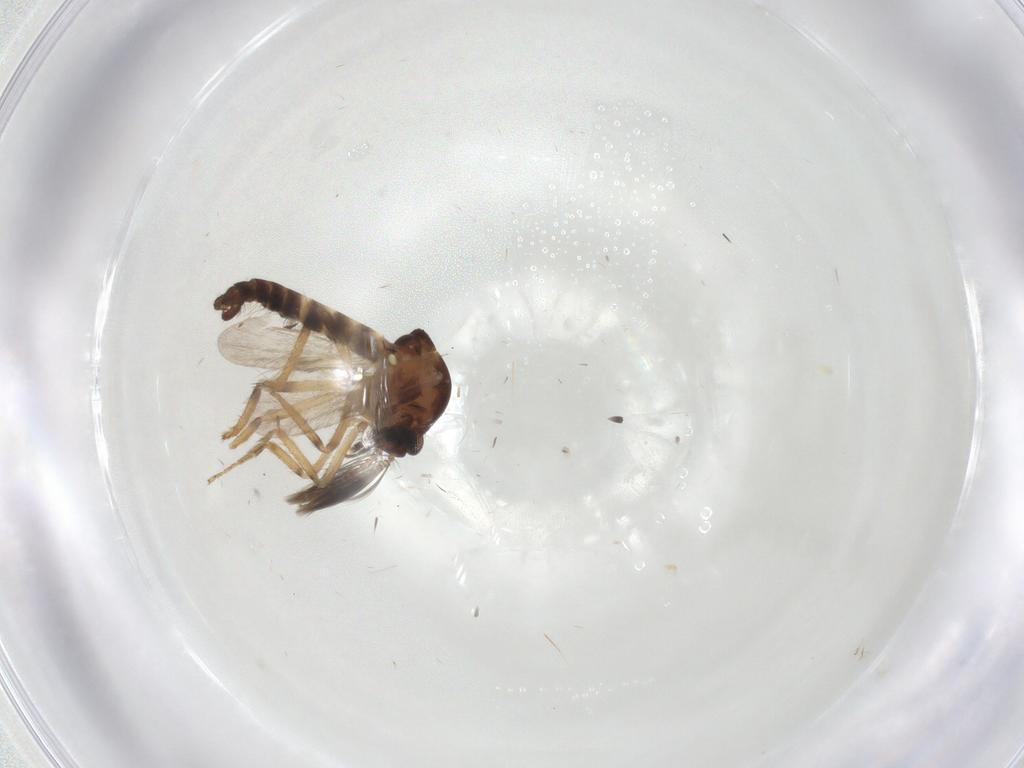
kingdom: Animalia
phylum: Arthropoda
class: Insecta
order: Diptera
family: Ceratopogonidae
